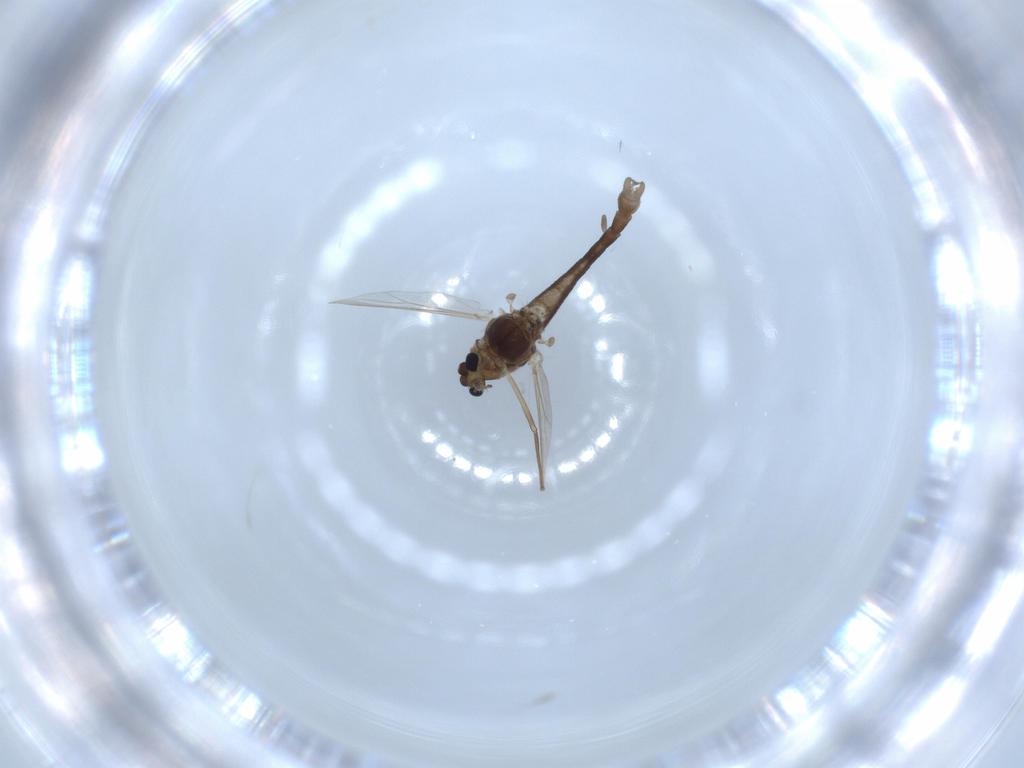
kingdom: Animalia
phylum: Arthropoda
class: Insecta
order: Diptera
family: Chironomidae
